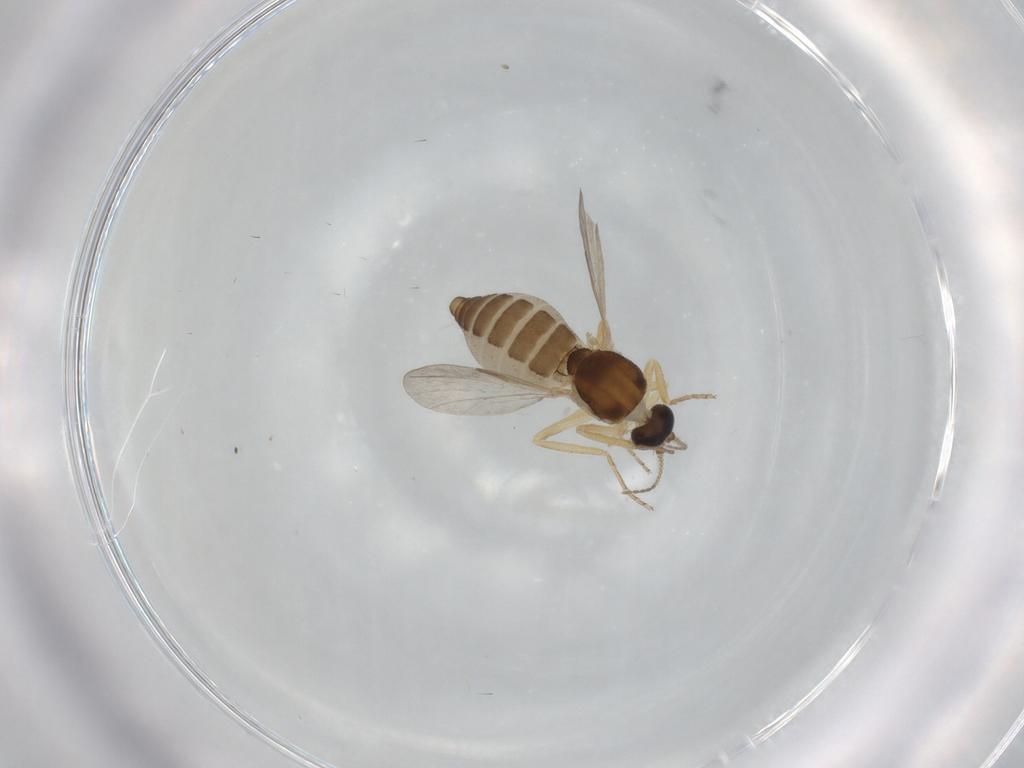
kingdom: Animalia
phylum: Arthropoda
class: Insecta
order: Diptera
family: Ceratopogonidae
